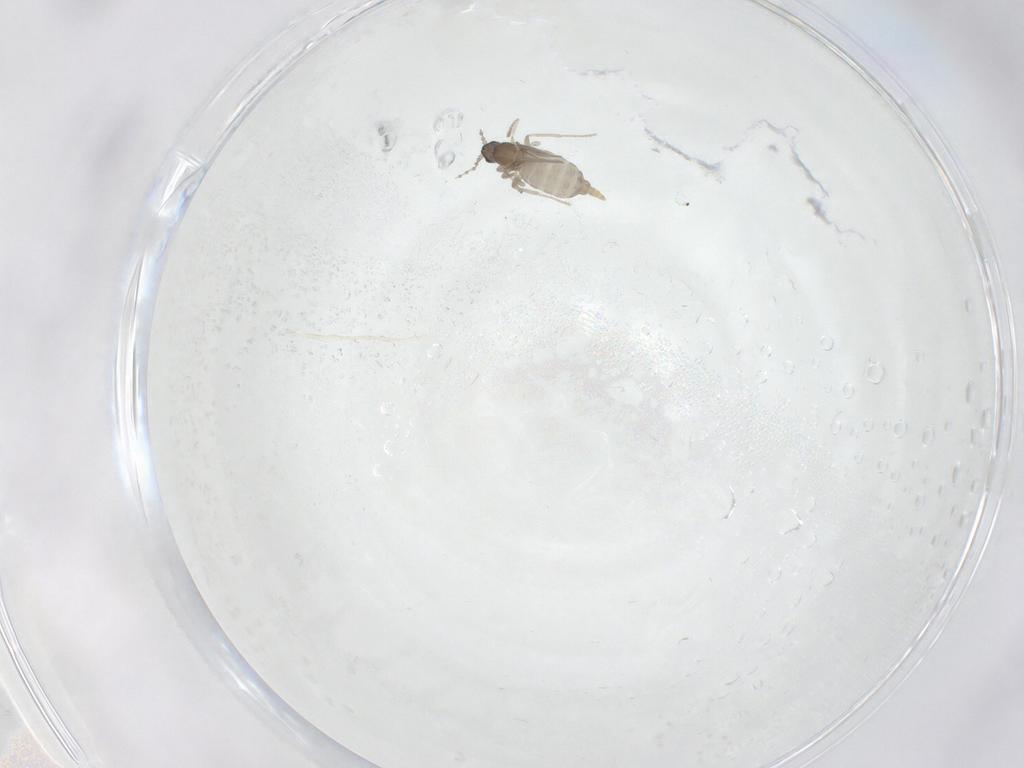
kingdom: Animalia
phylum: Arthropoda
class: Insecta
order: Diptera
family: Cecidomyiidae
